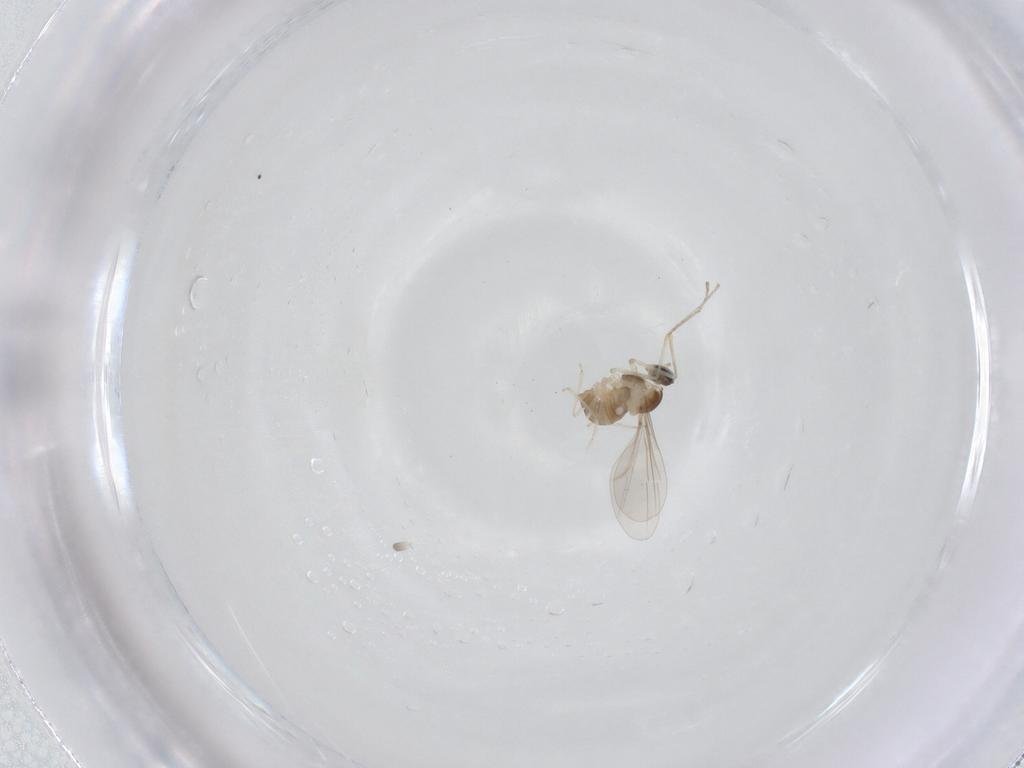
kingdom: Animalia
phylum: Arthropoda
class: Insecta
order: Diptera
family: Cecidomyiidae
